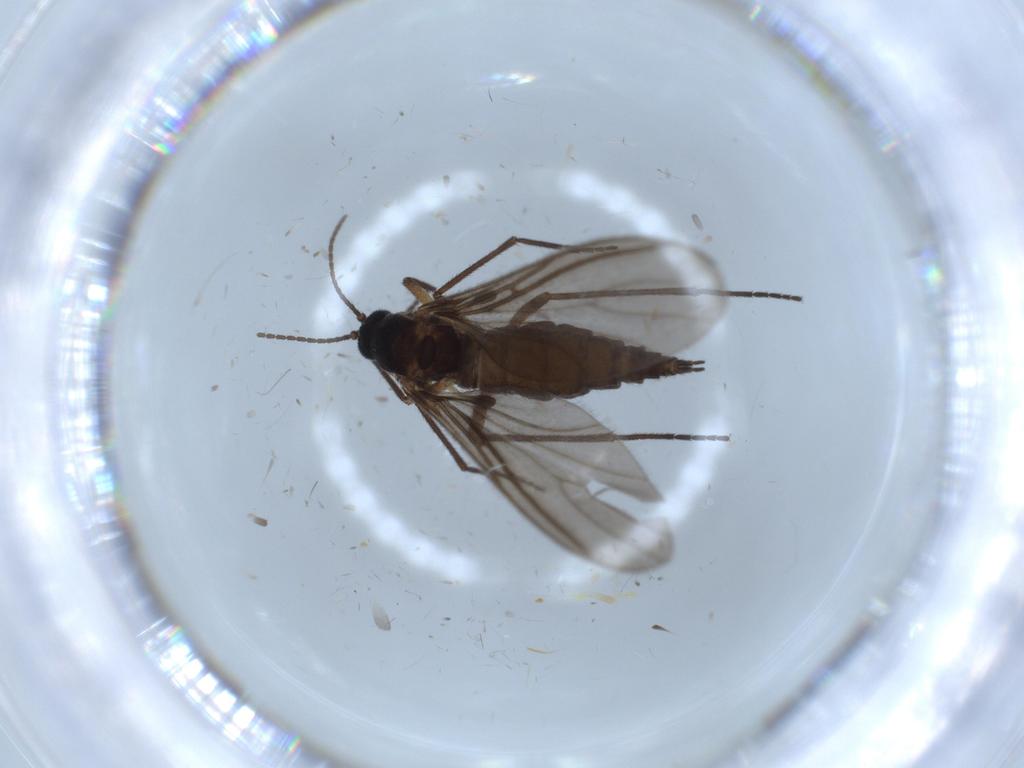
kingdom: Animalia
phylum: Arthropoda
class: Insecta
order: Diptera
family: Sciaridae
